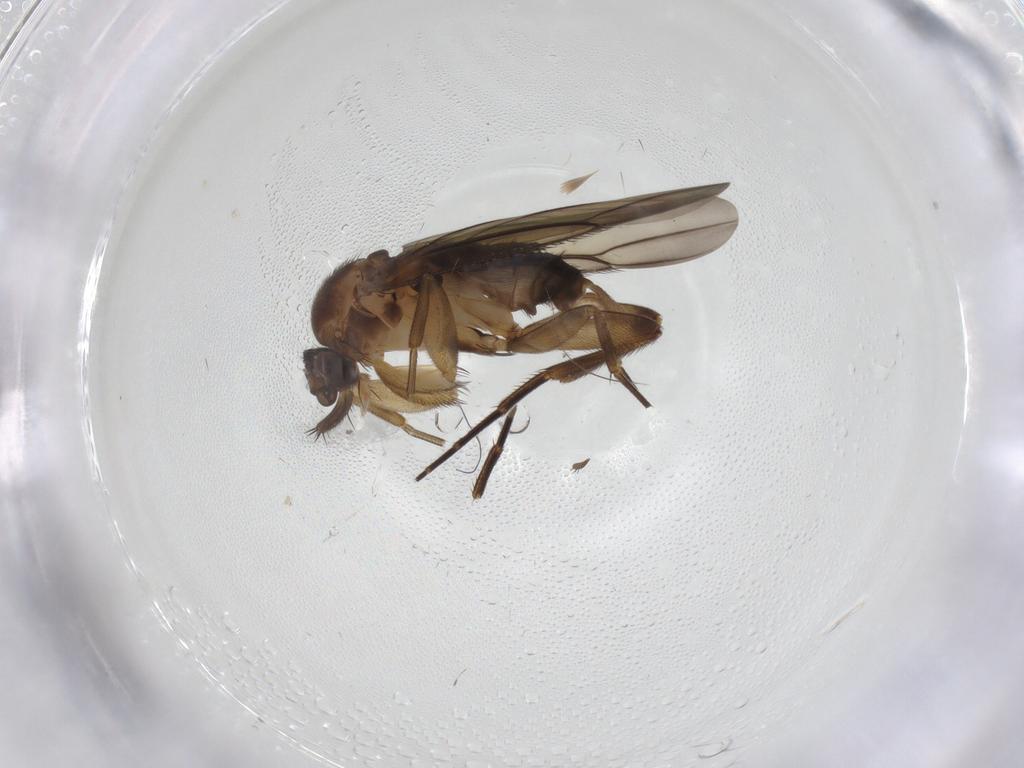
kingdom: Animalia
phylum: Arthropoda
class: Insecta
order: Diptera
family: Phoridae
